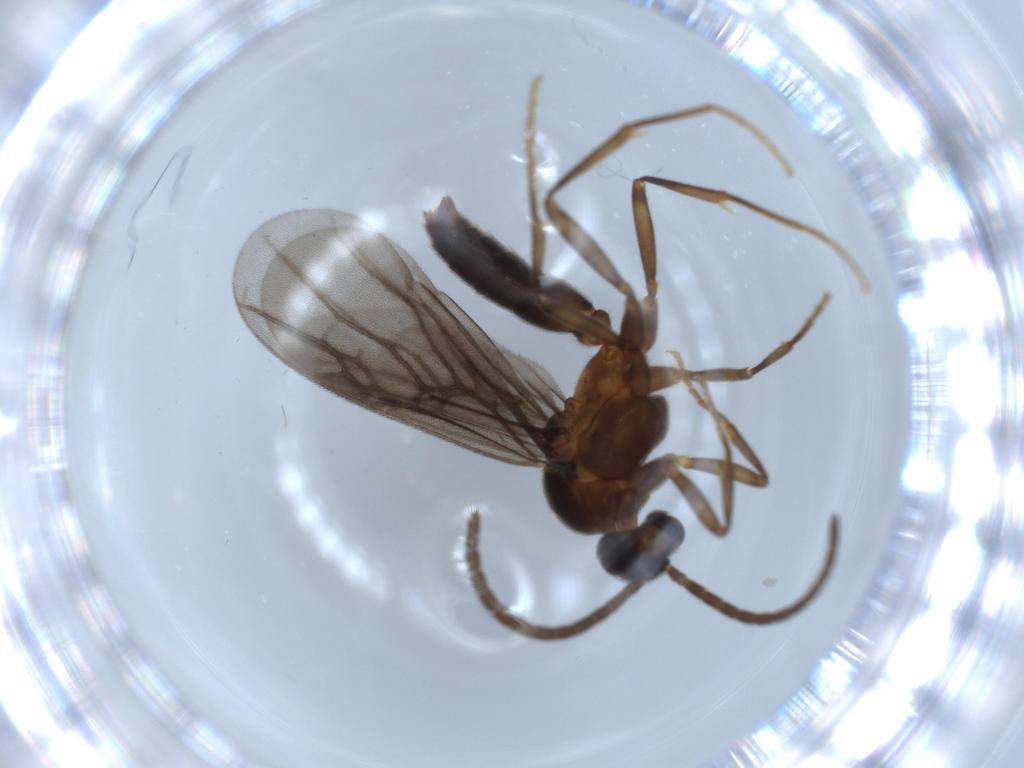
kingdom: Animalia
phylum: Arthropoda
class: Insecta
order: Hymenoptera
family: Formicidae
